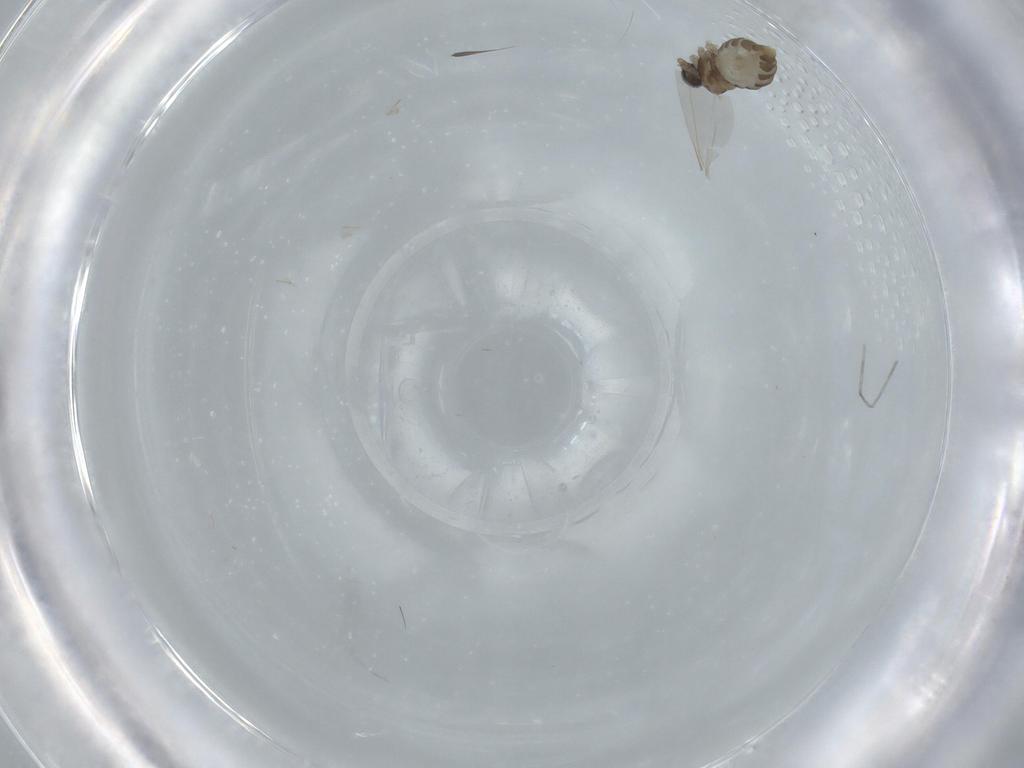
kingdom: Animalia
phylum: Arthropoda
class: Insecta
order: Diptera
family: Cecidomyiidae
